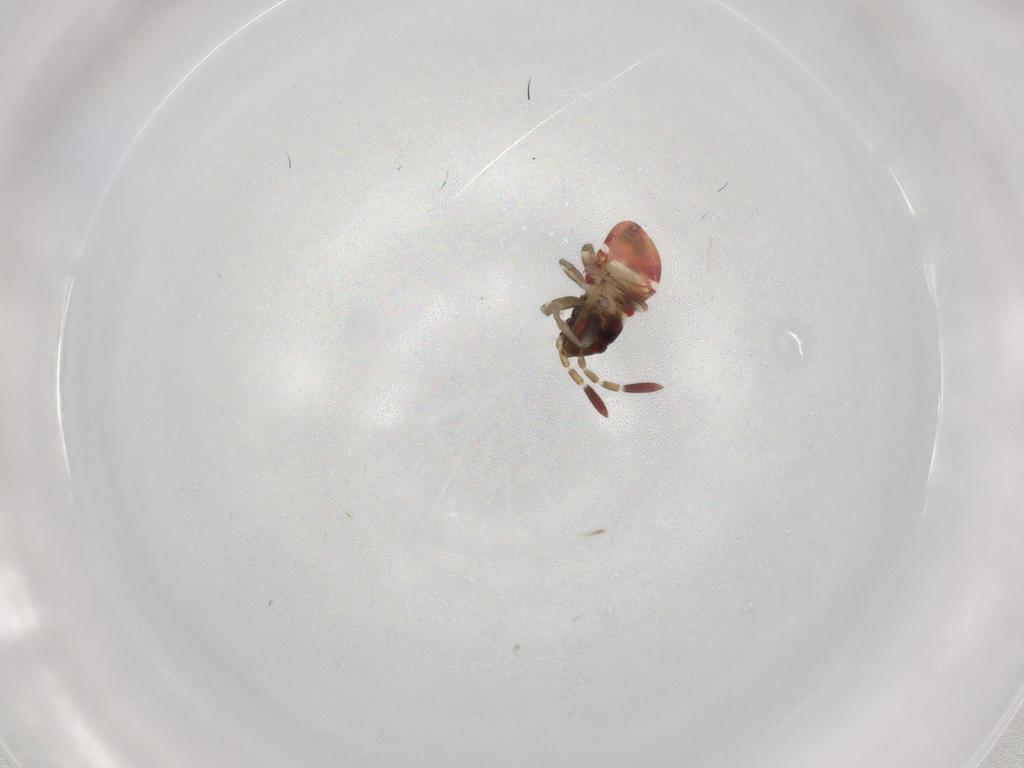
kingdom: Animalia
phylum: Arthropoda
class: Insecta
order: Hemiptera
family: Rhyparochromidae
